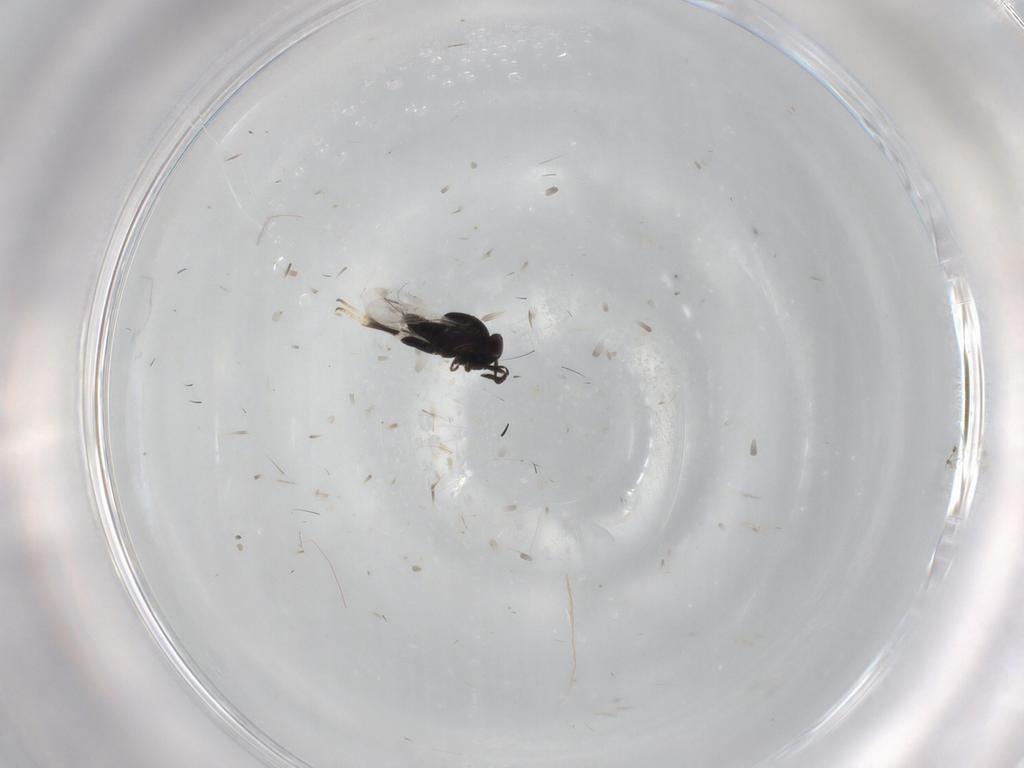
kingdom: Animalia
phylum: Arthropoda
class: Insecta
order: Hymenoptera
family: Encyrtidae
